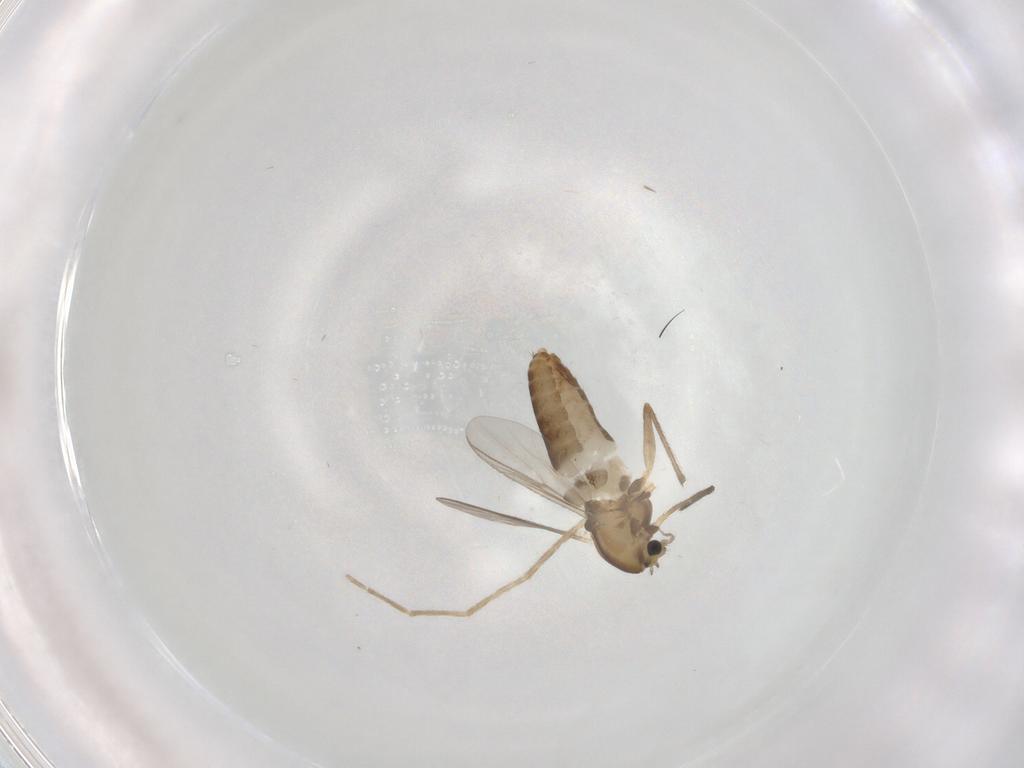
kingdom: Animalia
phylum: Arthropoda
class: Insecta
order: Diptera
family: Chironomidae
